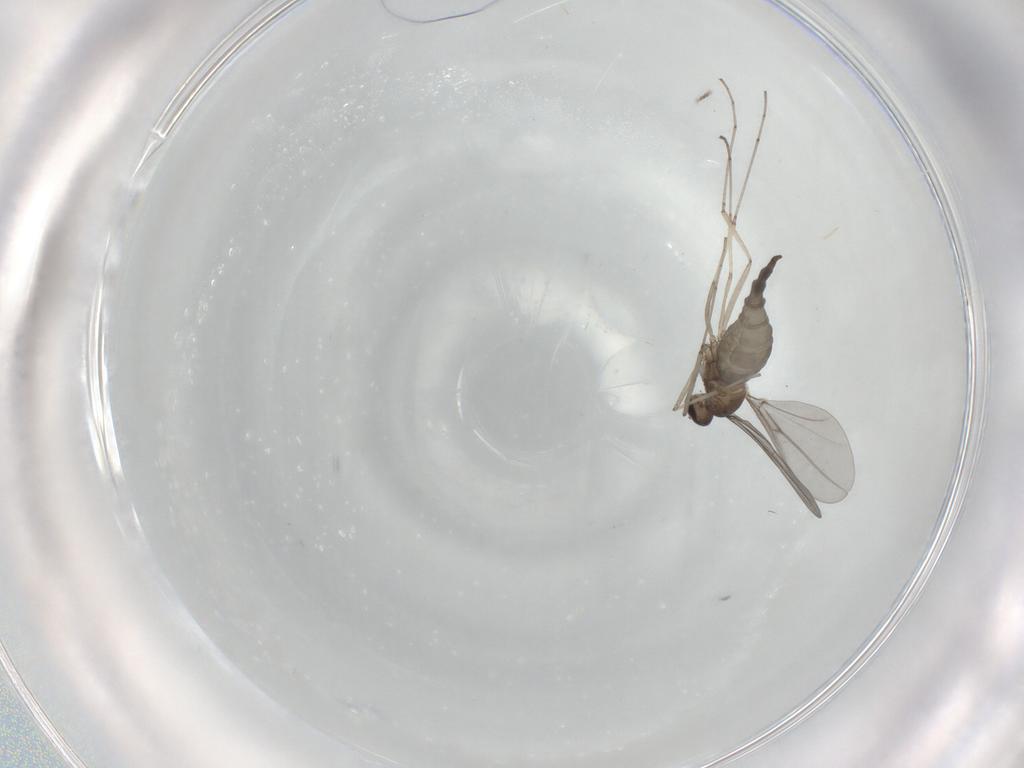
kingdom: Animalia
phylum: Arthropoda
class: Insecta
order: Diptera
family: Cecidomyiidae
